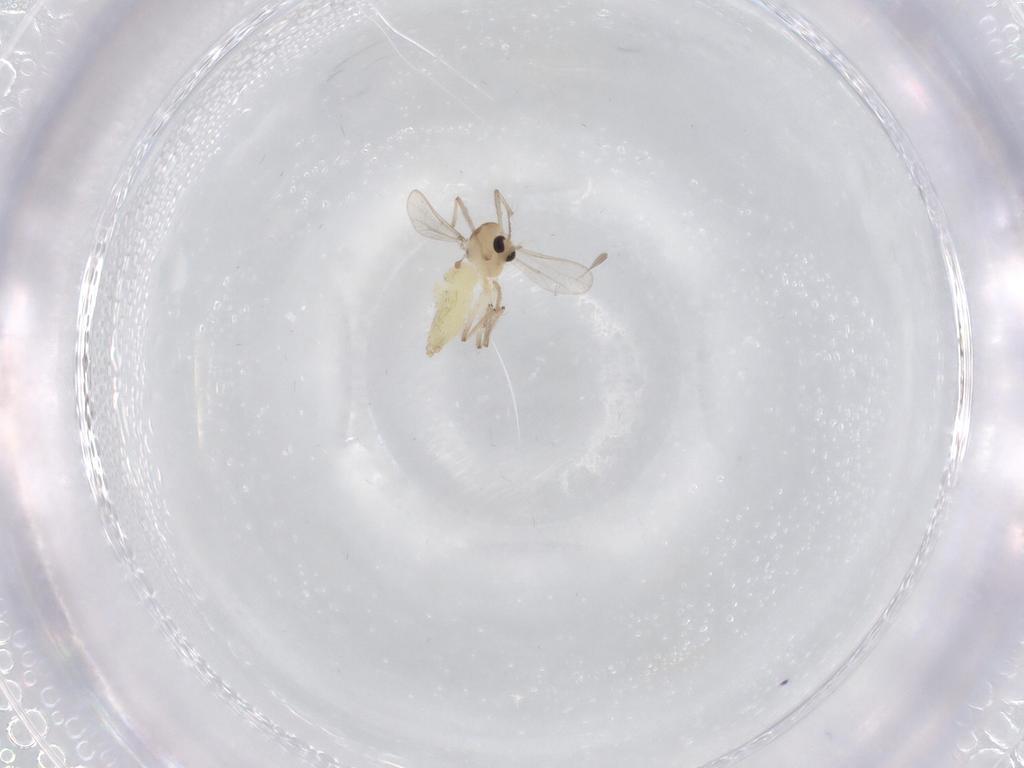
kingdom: Animalia
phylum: Arthropoda
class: Insecta
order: Diptera
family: Chironomidae
